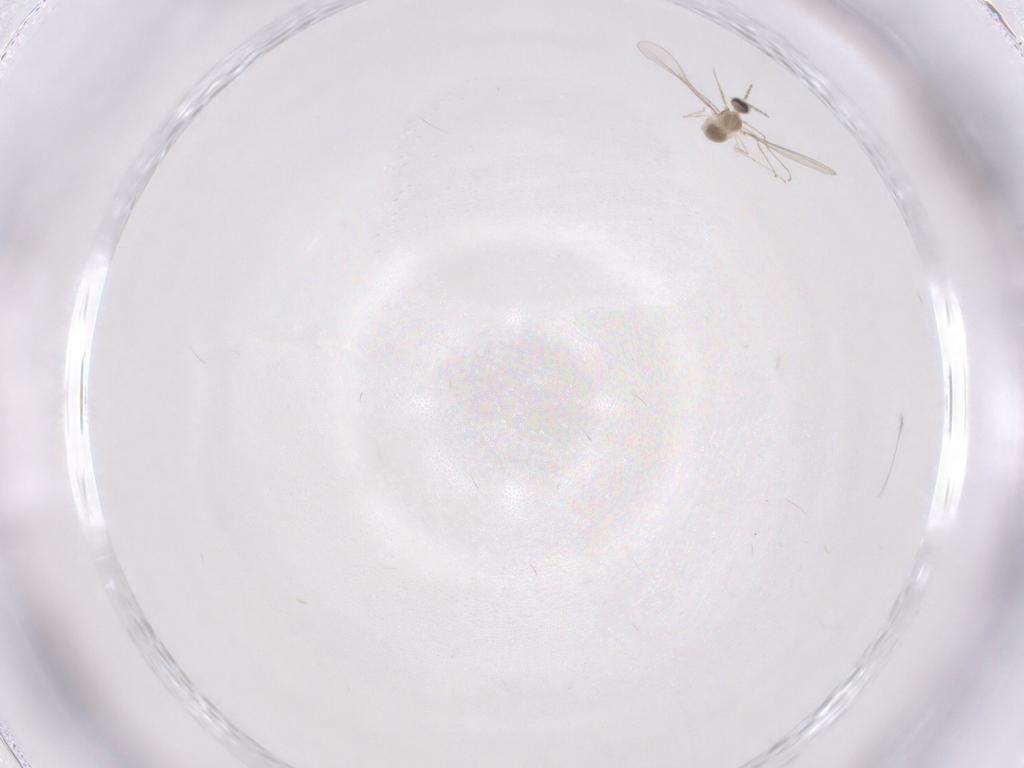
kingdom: Animalia
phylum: Arthropoda
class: Insecta
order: Diptera
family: Cecidomyiidae
